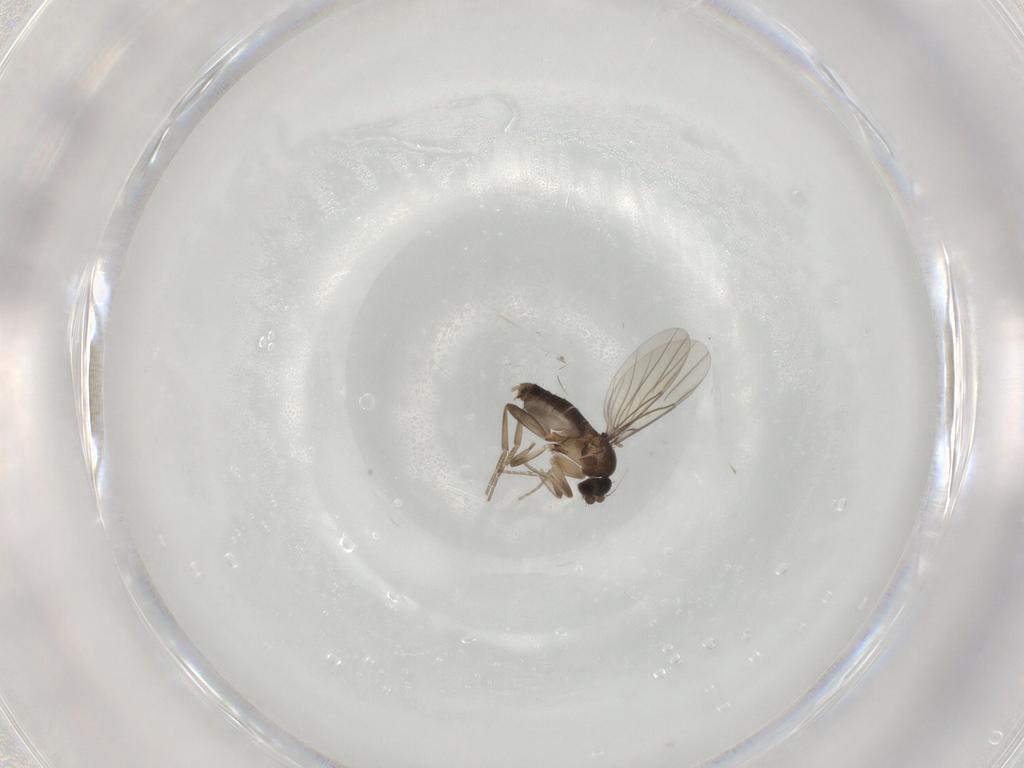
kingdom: Animalia
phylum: Arthropoda
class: Insecta
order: Diptera
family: Phoridae
